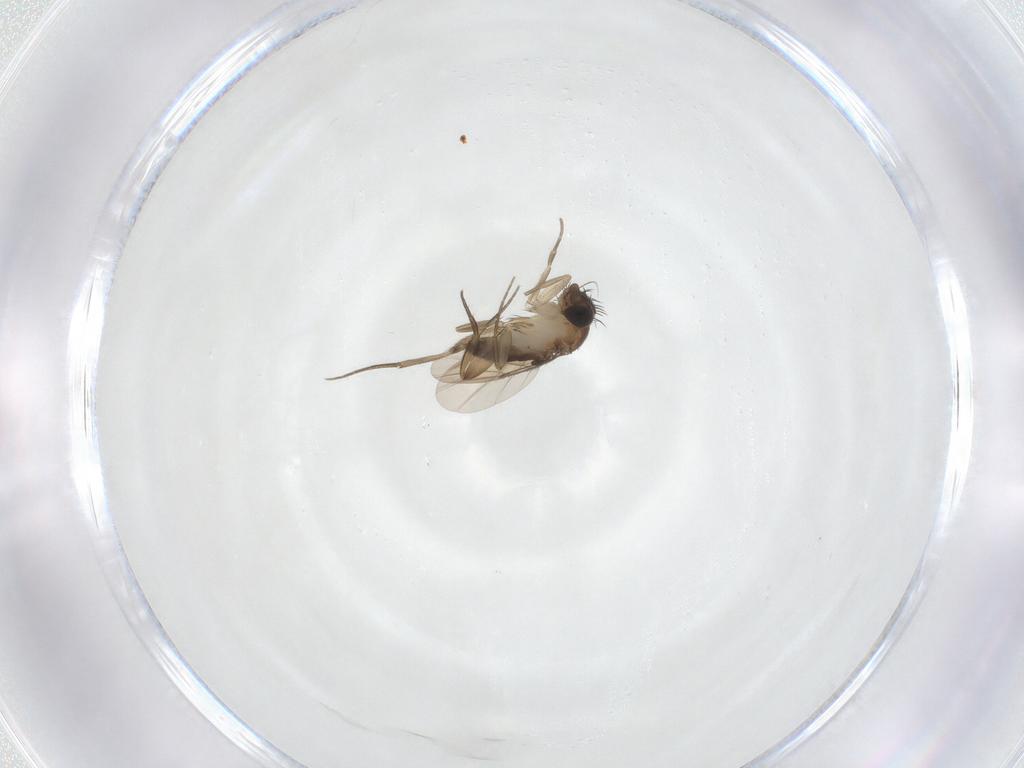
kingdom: Animalia
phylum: Arthropoda
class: Insecta
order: Diptera
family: Phoridae
